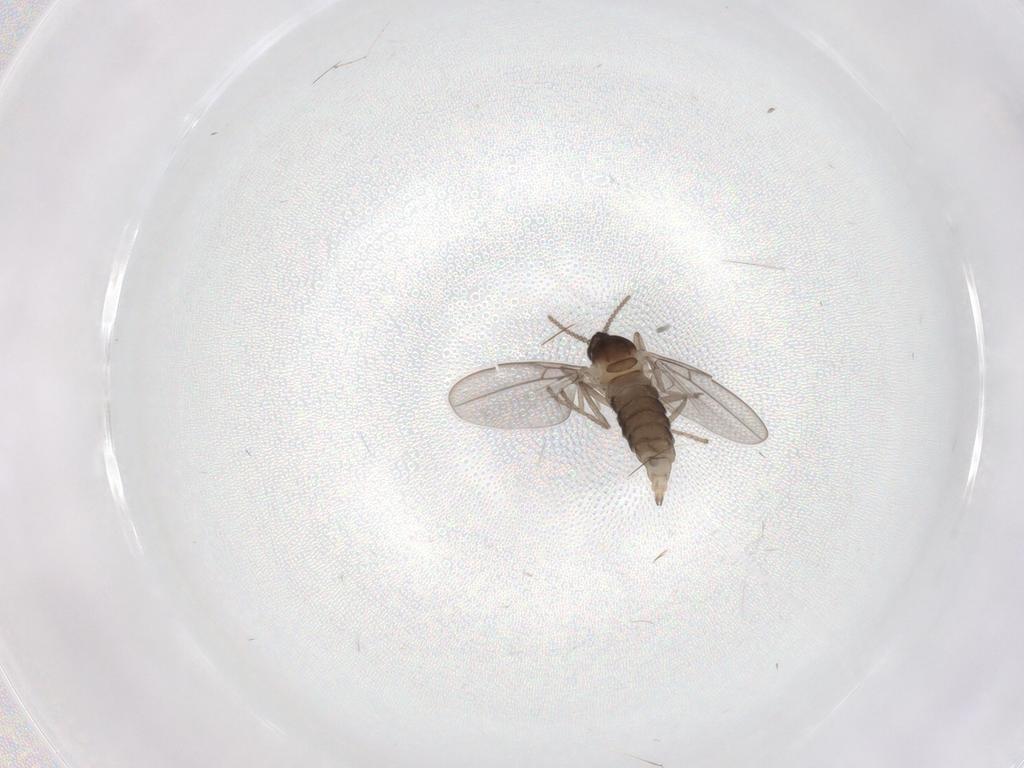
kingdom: Animalia
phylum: Arthropoda
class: Insecta
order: Diptera
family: Cecidomyiidae
